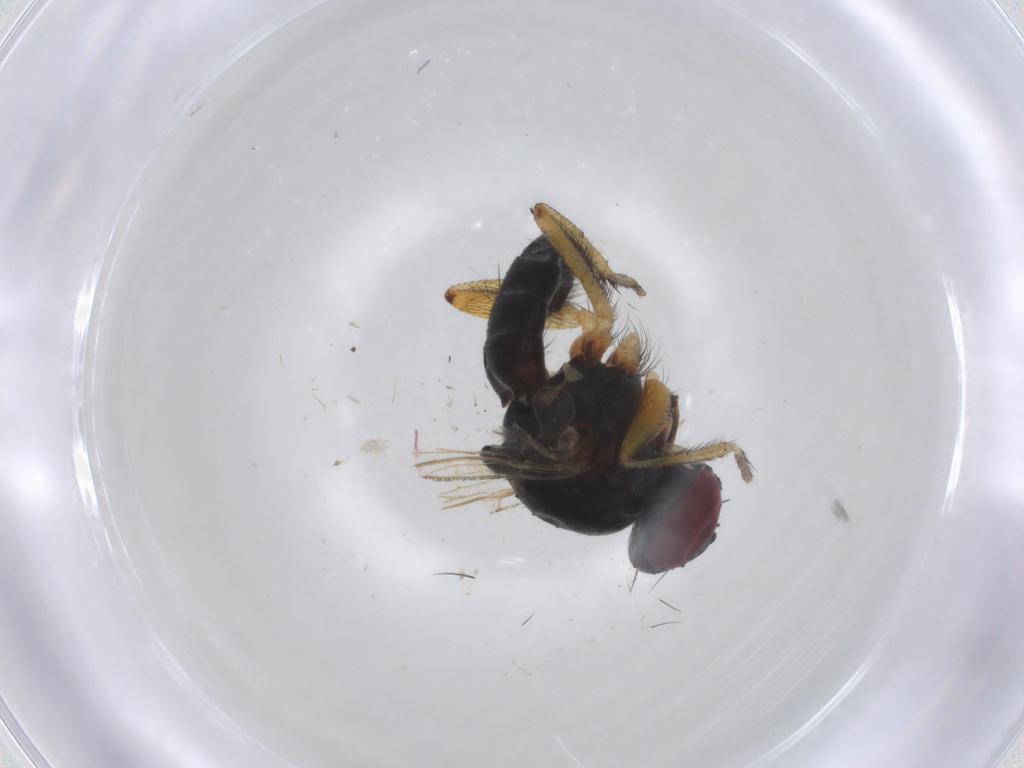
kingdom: Animalia
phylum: Arthropoda
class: Insecta
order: Diptera
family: Muscidae
